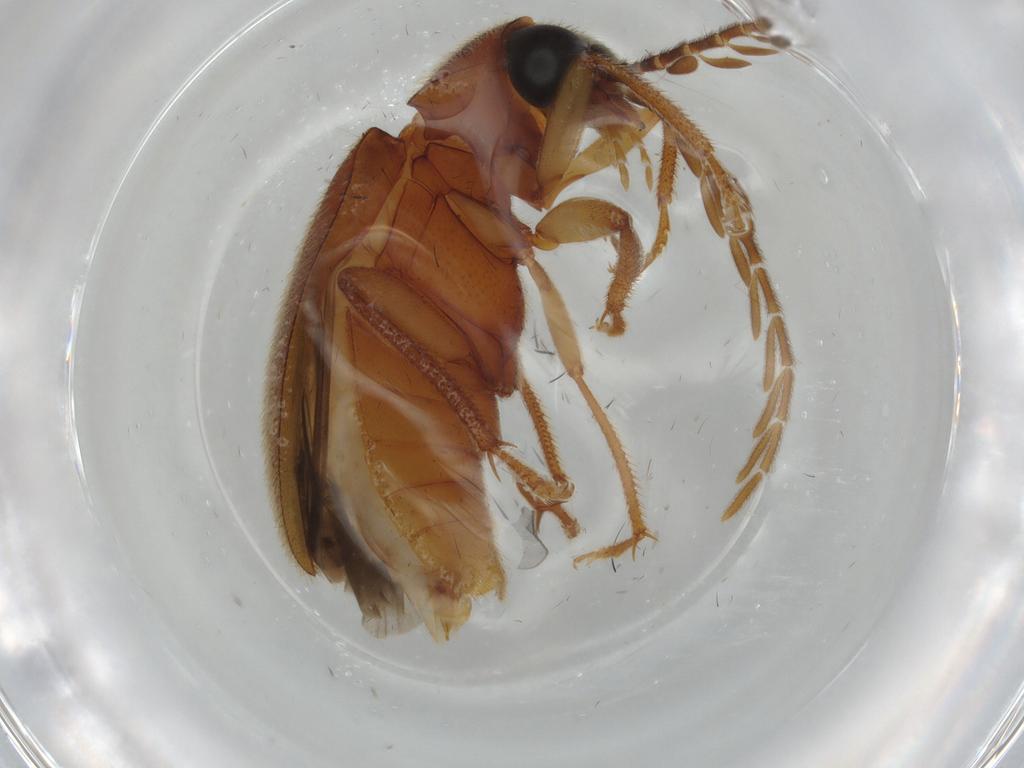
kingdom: Animalia
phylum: Arthropoda
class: Insecta
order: Coleoptera
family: Ptilodactylidae
